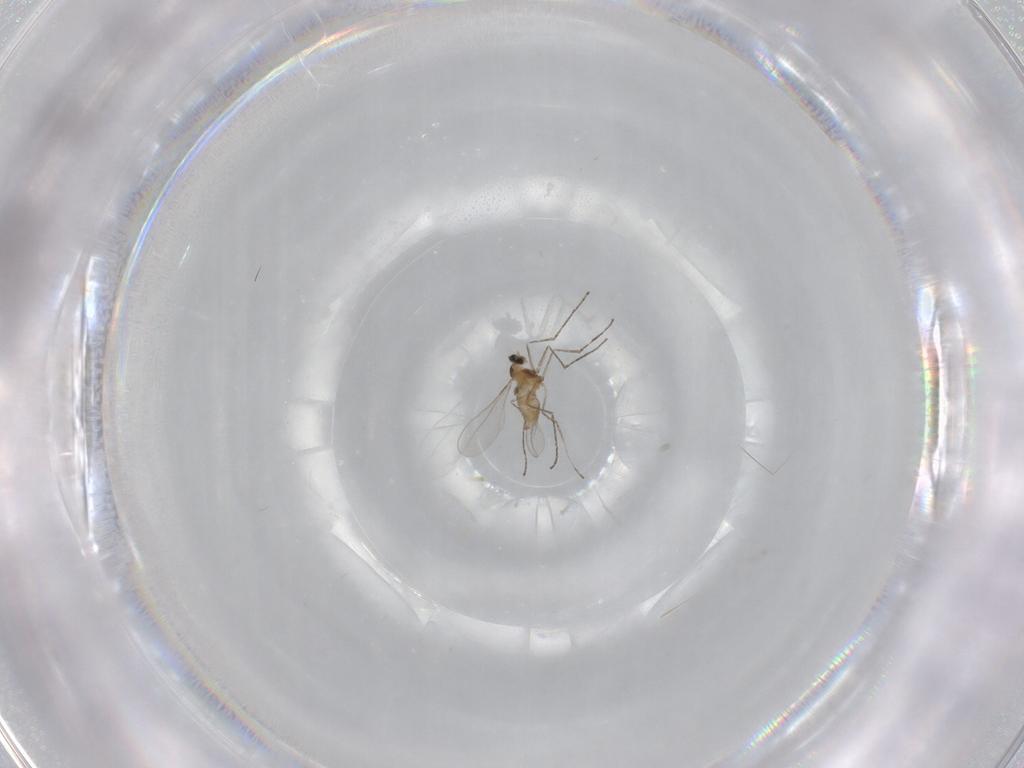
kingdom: Animalia
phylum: Arthropoda
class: Insecta
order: Diptera
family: Cecidomyiidae
